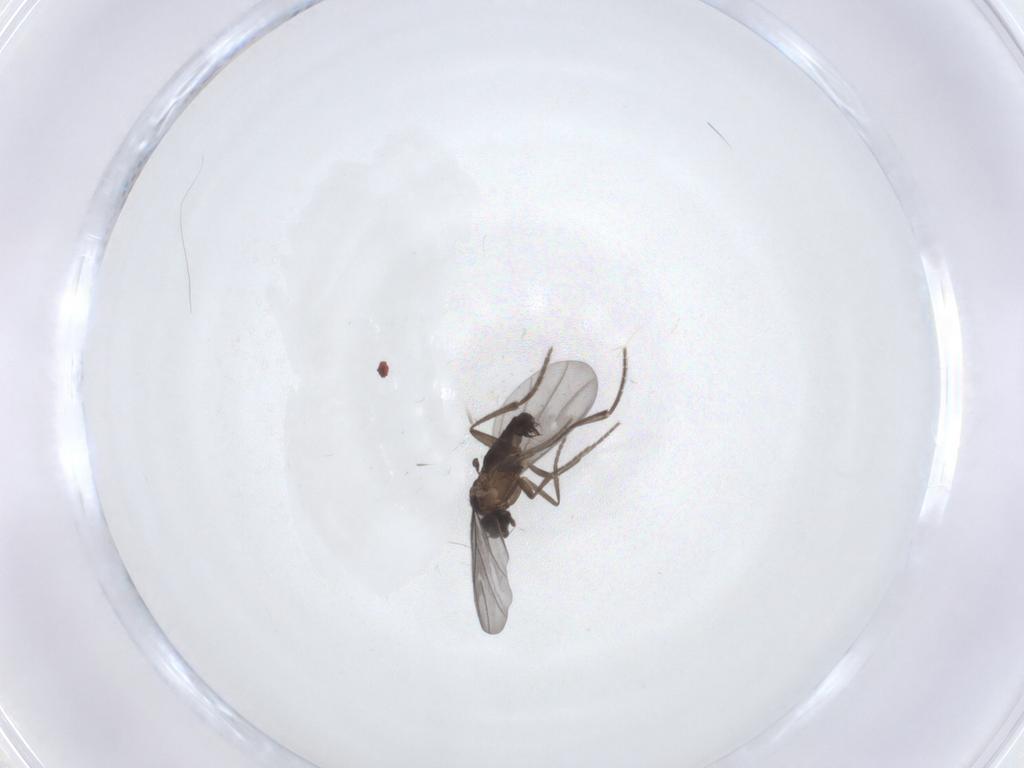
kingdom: Animalia
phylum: Arthropoda
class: Insecta
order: Diptera
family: Phoridae
